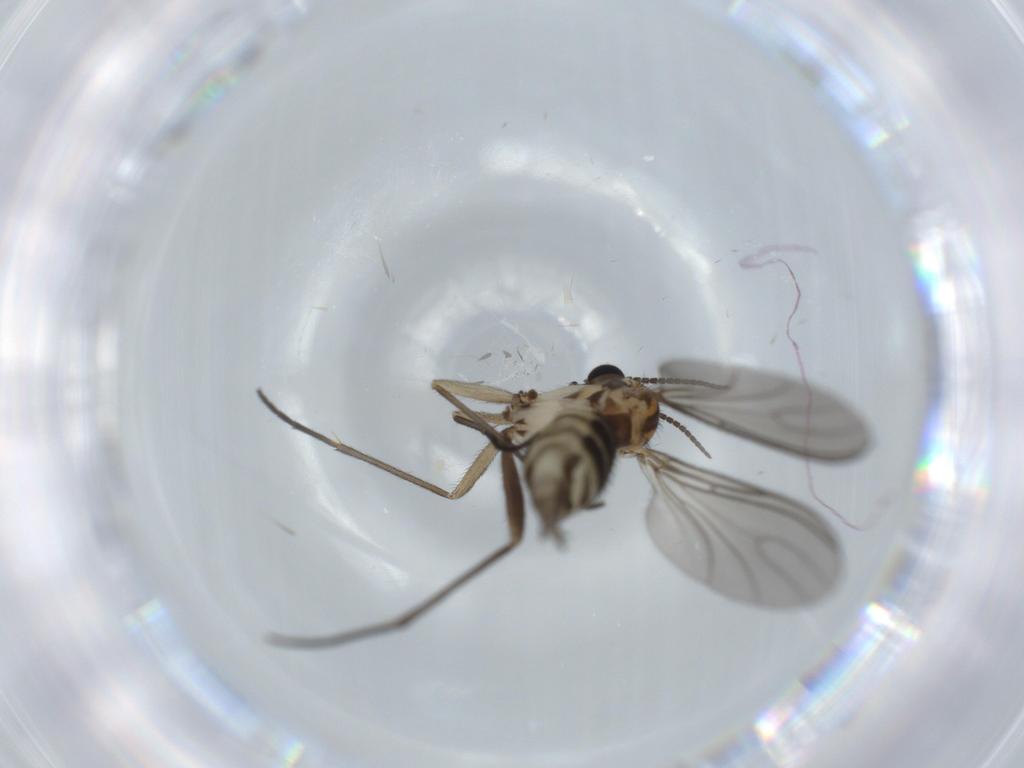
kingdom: Animalia
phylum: Arthropoda
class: Insecta
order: Diptera
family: Sciaridae
